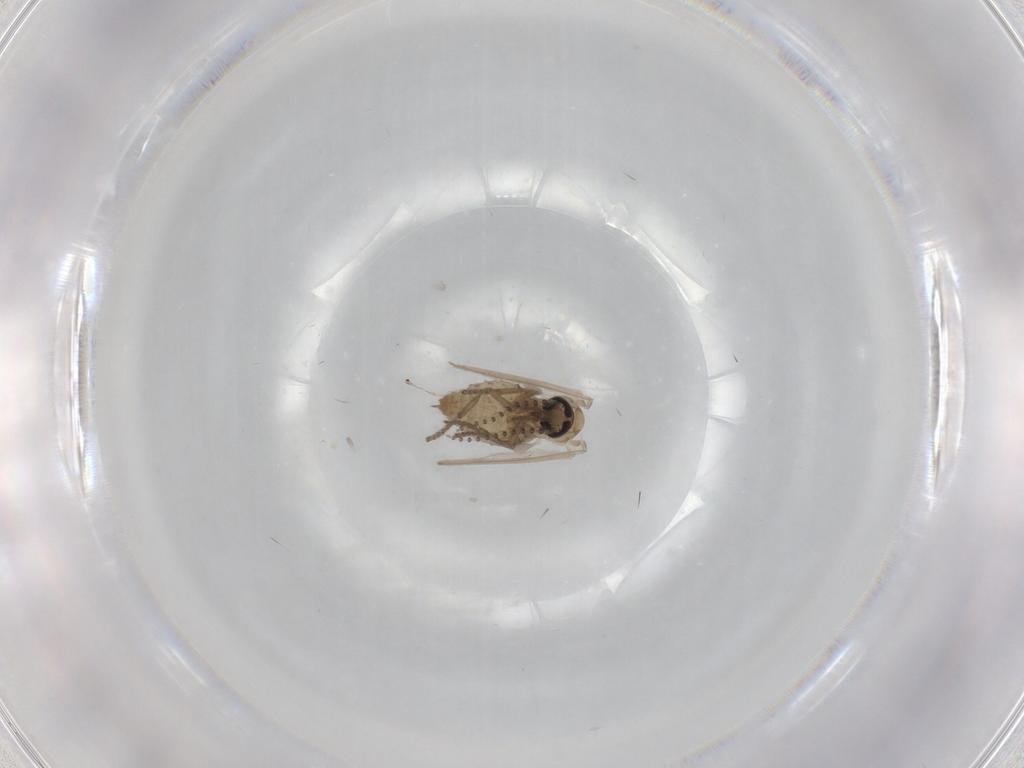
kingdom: Animalia
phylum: Arthropoda
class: Insecta
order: Diptera
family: Psychodidae
